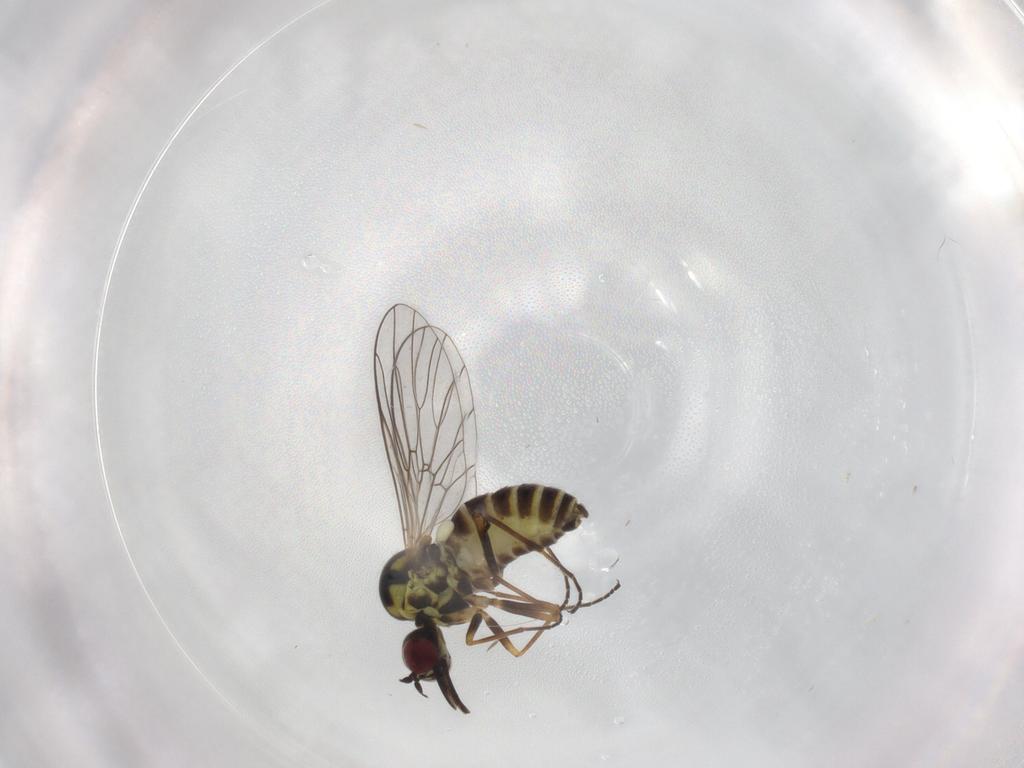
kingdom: Animalia
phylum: Arthropoda
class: Insecta
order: Diptera
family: Bombyliidae
